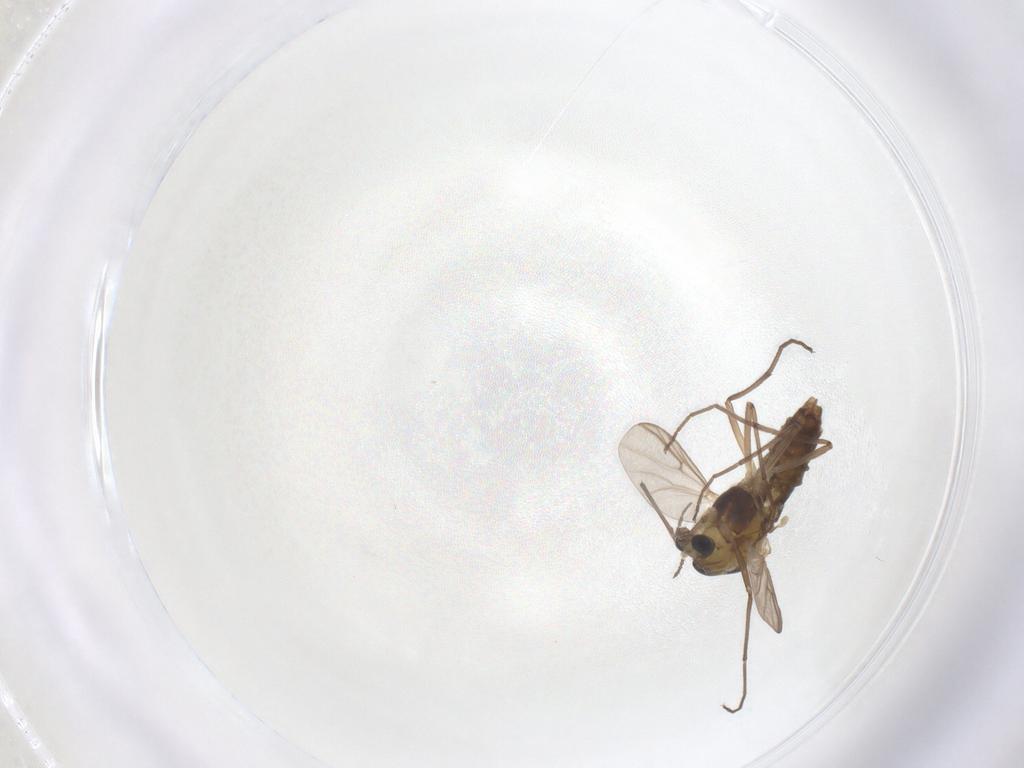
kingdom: Animalia
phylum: Arthropoda
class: Insecta
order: Diptera
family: Chironomidae
